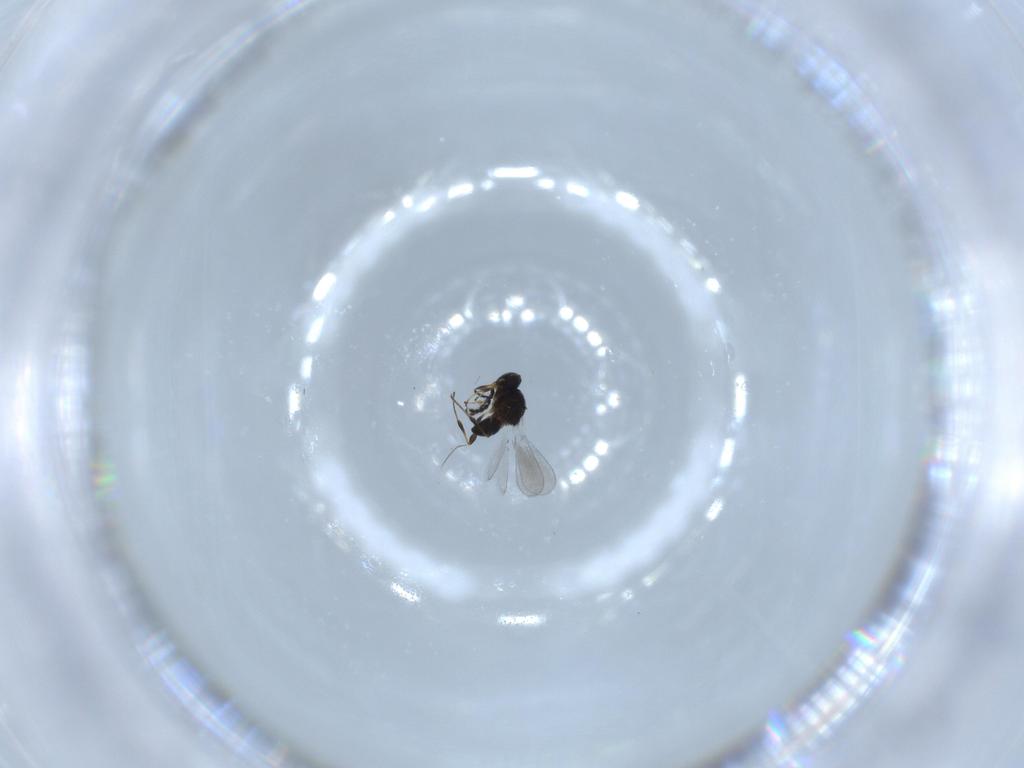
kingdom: Animalia
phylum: Arthropoda
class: Insecta
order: Hymenoptera
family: Platygastridae
